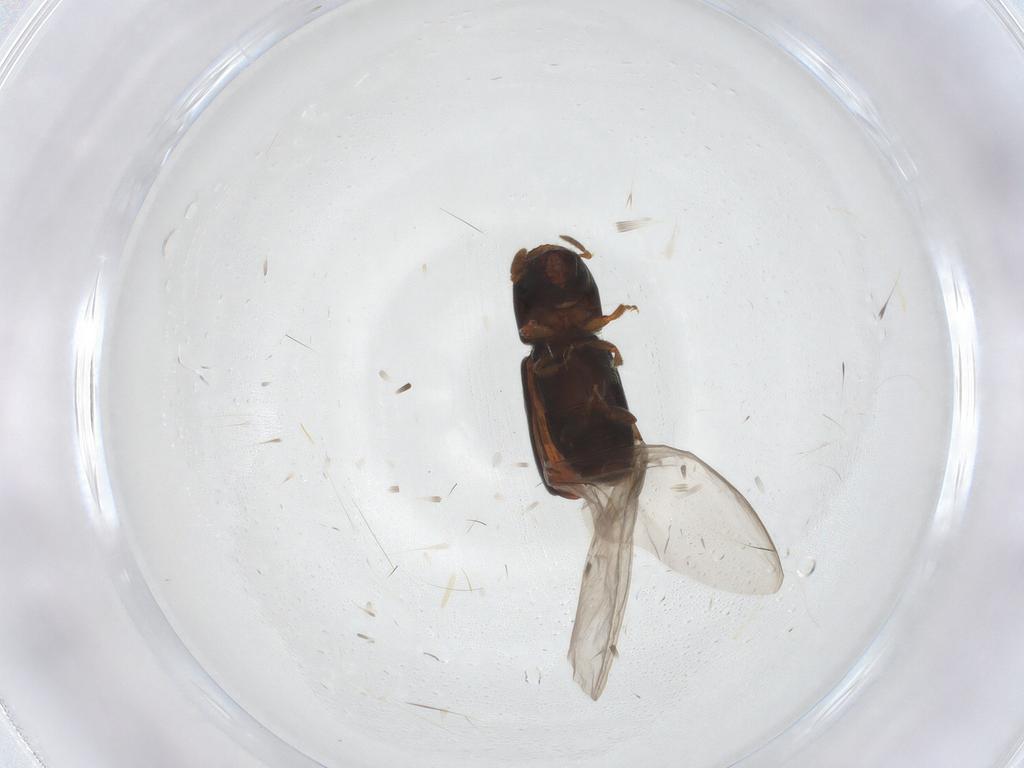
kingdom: Animalia
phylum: Arthropoda
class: Insecta
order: Coleoptera
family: Curculionidae
